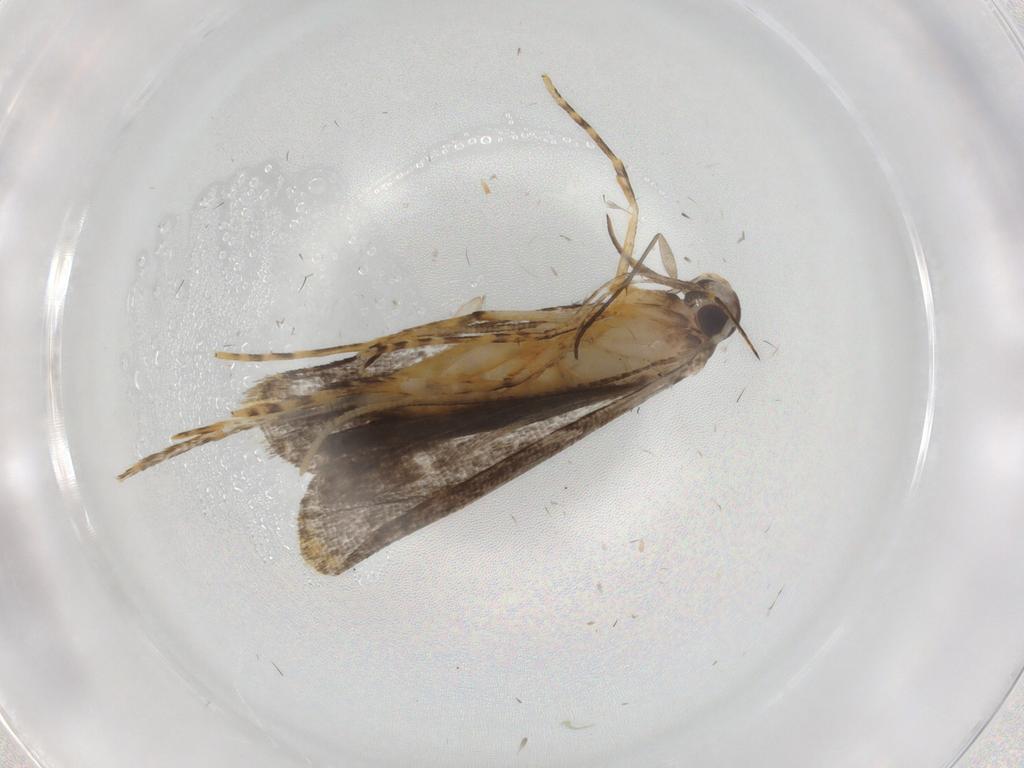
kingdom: Animalia
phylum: Arthropoda
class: Insecta
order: Lepidoptera
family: Cosmopterigidae
